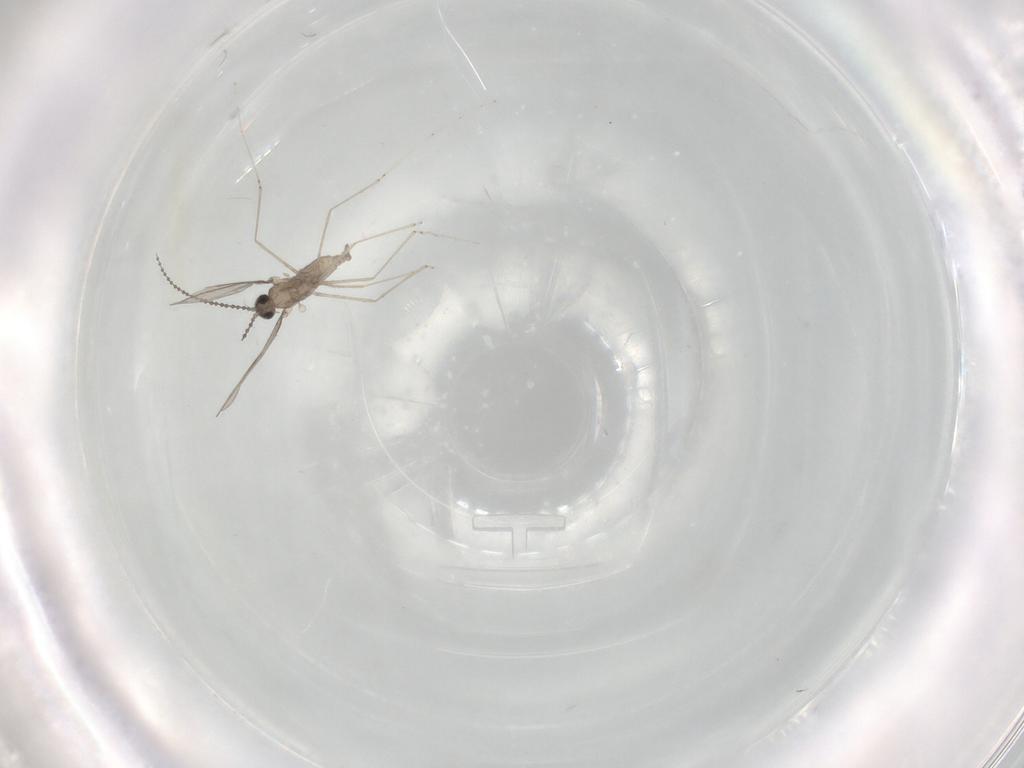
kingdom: Animalia
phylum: Arthropoda
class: Insecta
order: Diptera
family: Cecidomyiidae
